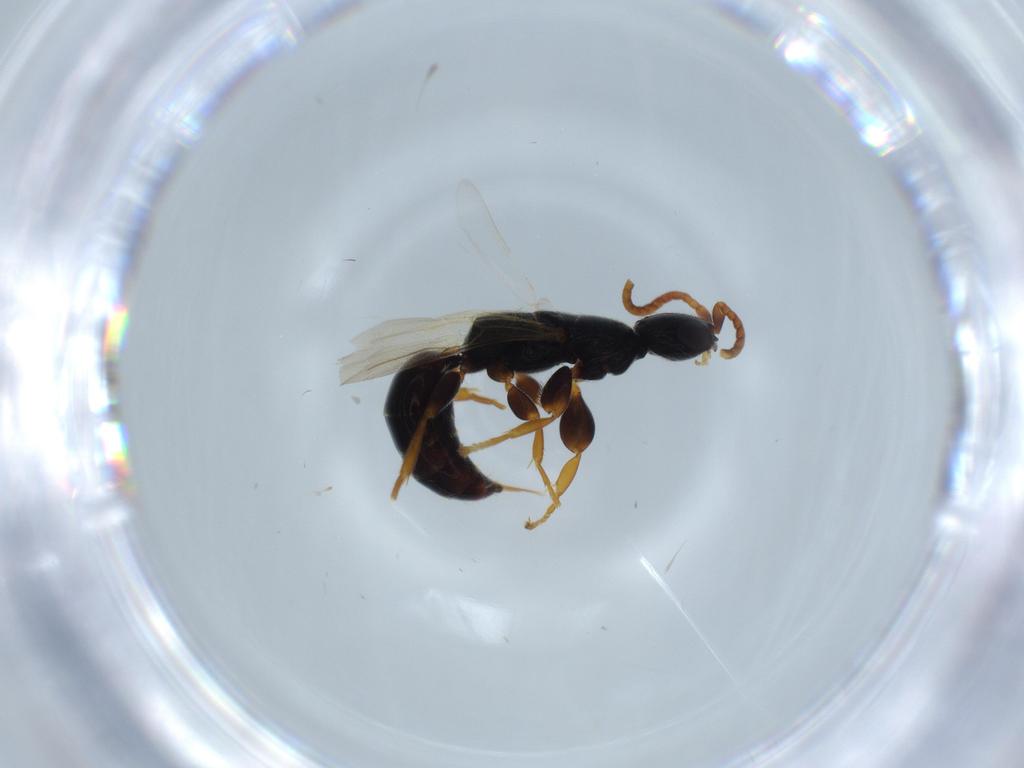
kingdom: Animalia
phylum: Arthropoda
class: Insecta
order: Hymenoptera
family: Bethylidae
